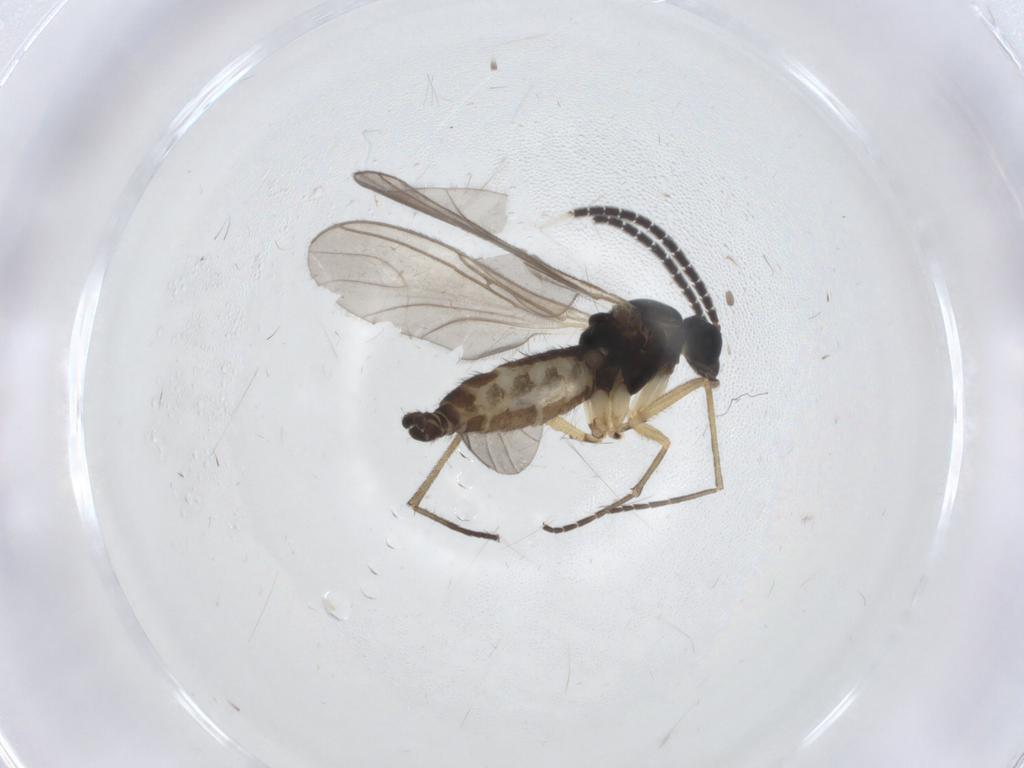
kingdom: Animalia
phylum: Arthropoda
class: Insecta
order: Diptera
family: Sciaridae
